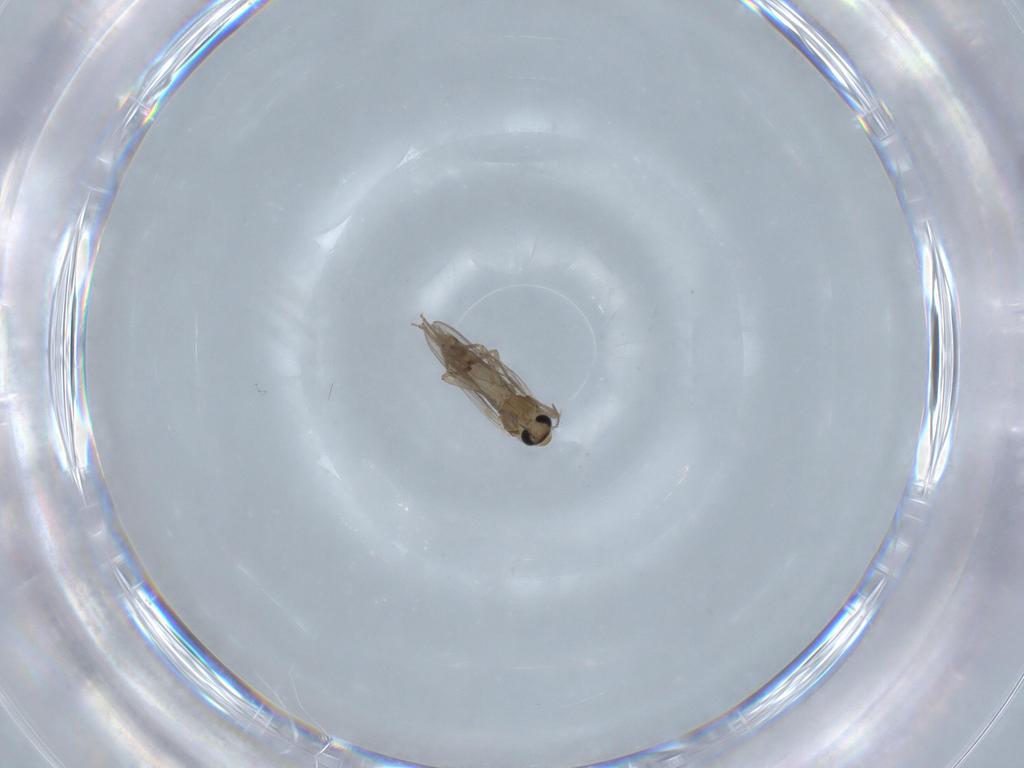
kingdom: Animalia
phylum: Arthropoda
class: Insecta
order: Diptera
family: Chironomidae
